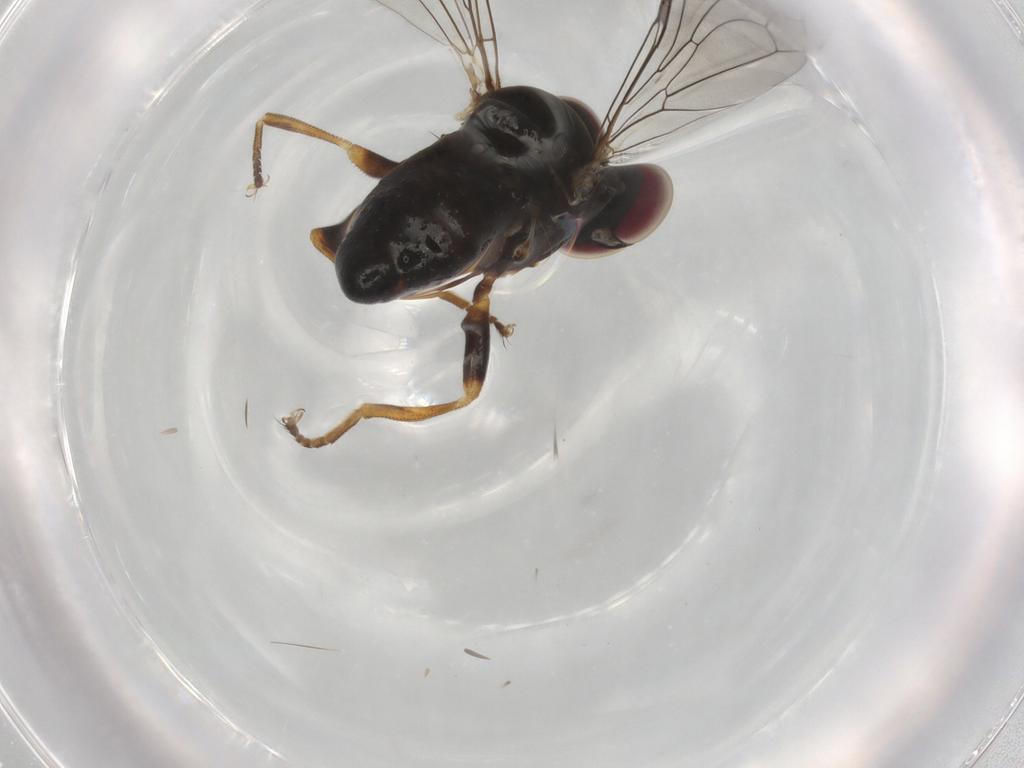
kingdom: Animalia
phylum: Arthropoda
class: Insecta
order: Diptera
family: Pipunculidae
